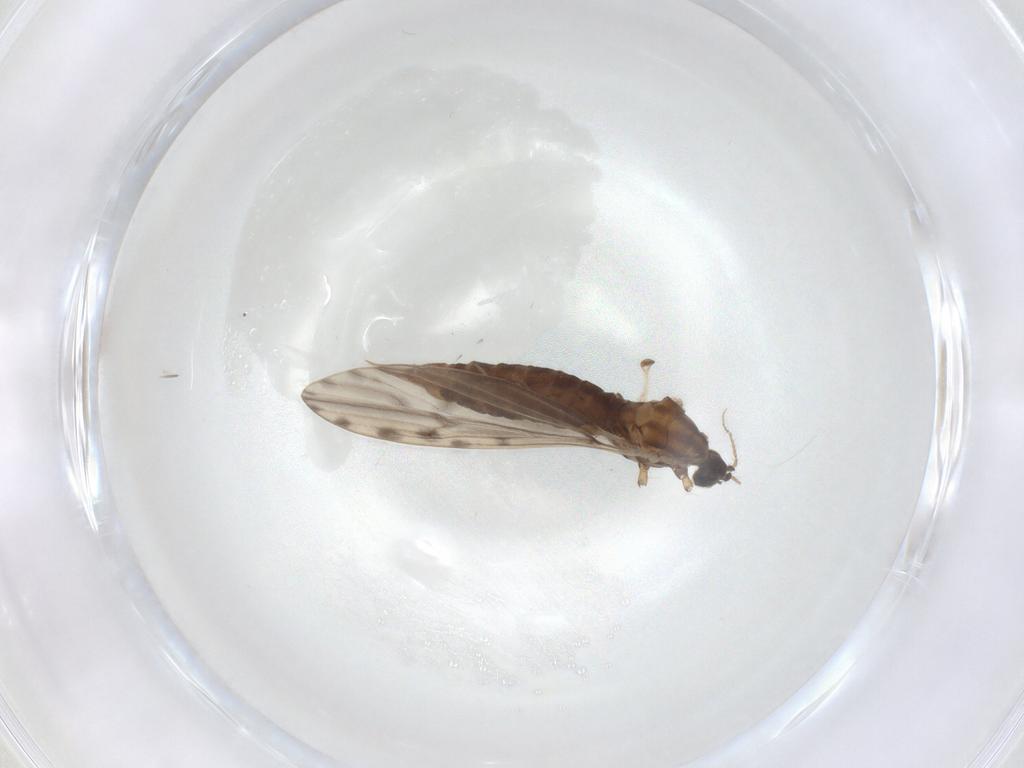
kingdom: Animalia
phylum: Arthropoda
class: Insecta
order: Diptera
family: Limoniidae
